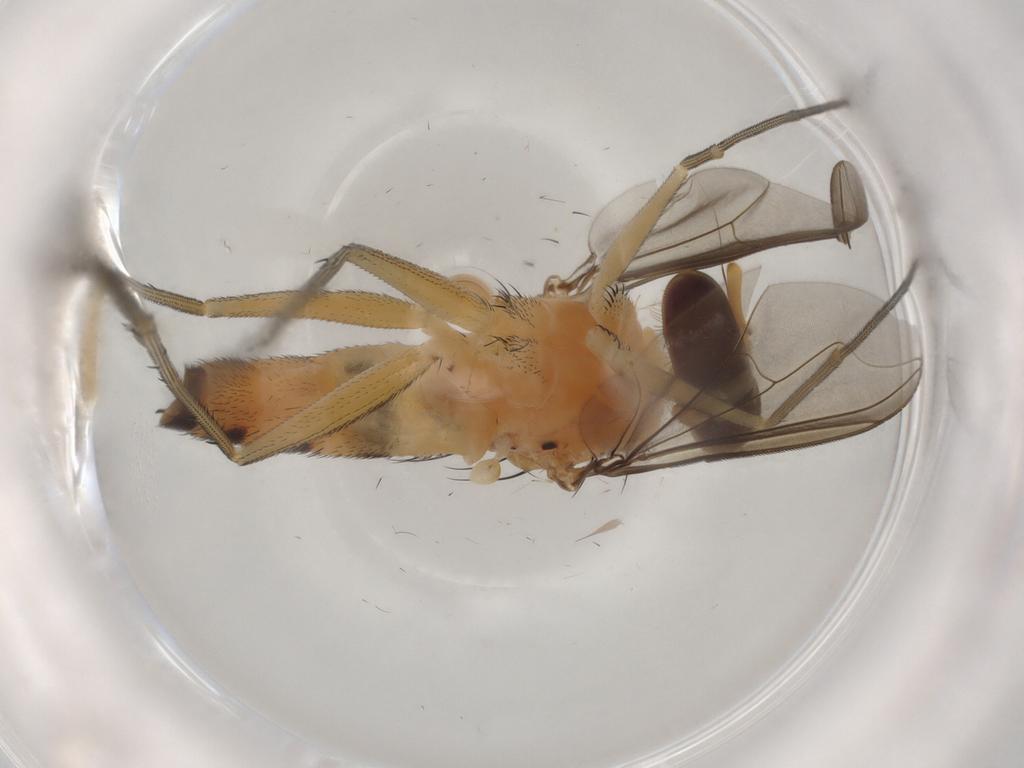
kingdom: Animalia
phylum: Arthropoda
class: Insecta
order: Diptera
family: Dolichopodidae
